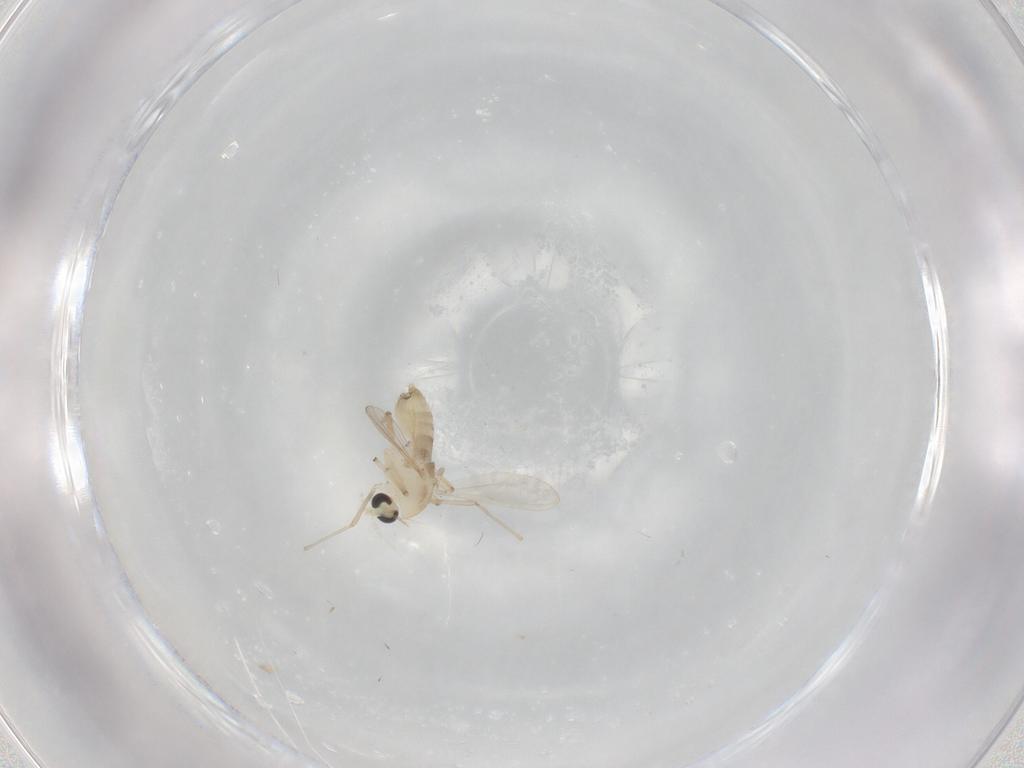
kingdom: Animalia
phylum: Arthropoda
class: Insecta
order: Diptera
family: Chironomidae
